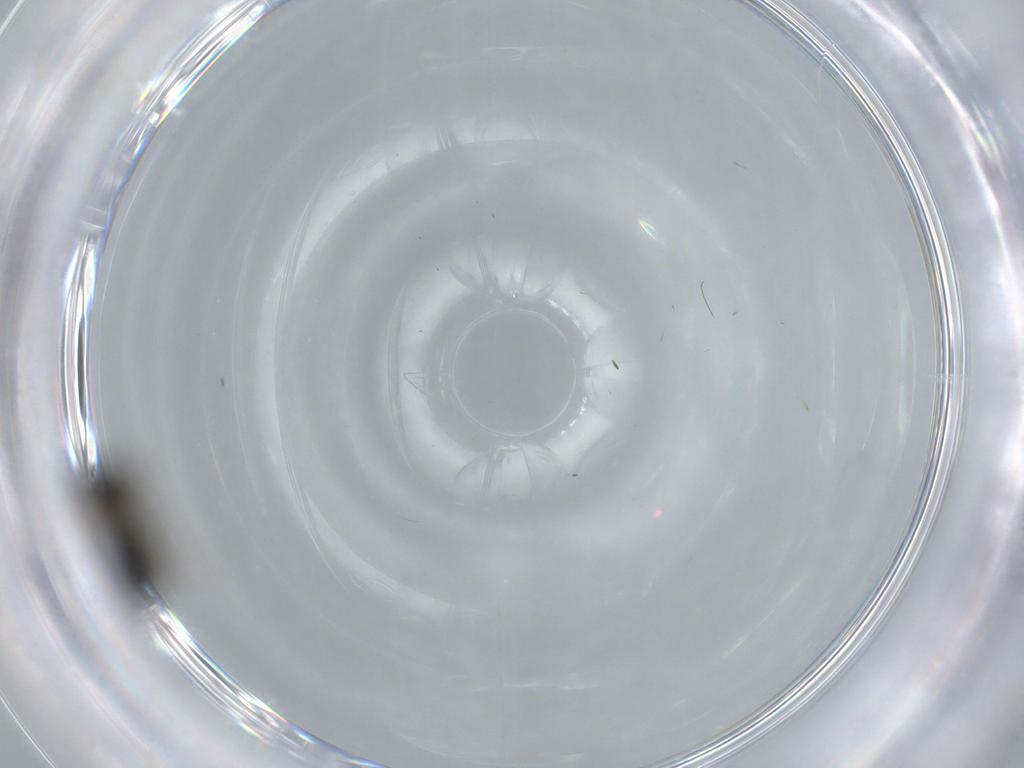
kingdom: Animalia
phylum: Arthropoda
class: Insecta
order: Hymenoptera
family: Scelionidae
